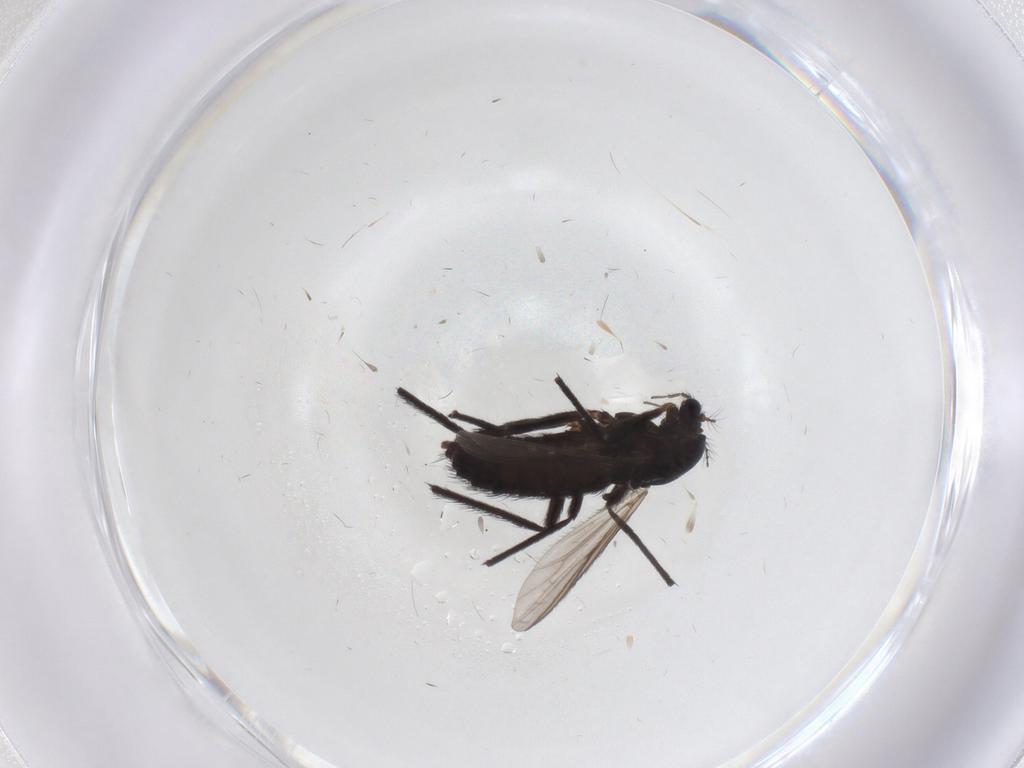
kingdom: Animalia
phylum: Arthropoda
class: Insecta
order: Diptera
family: Chironomidae
